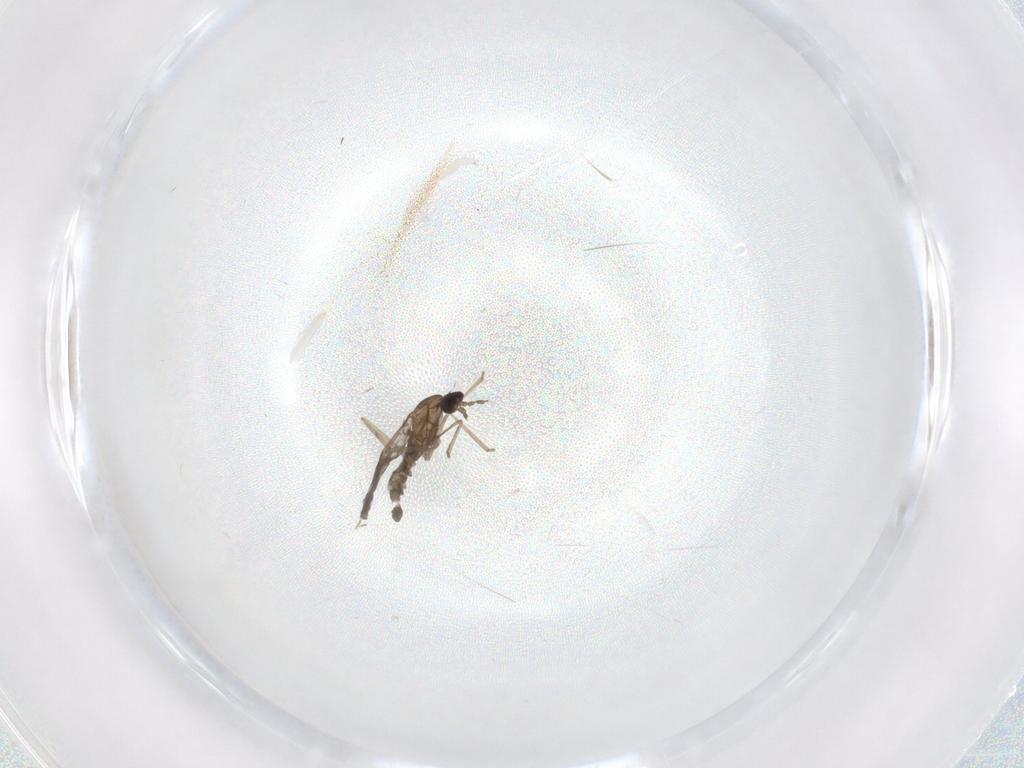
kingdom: Animalia
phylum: Arthropoda
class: Insecta
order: Diptera
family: Cecidomyiidae
